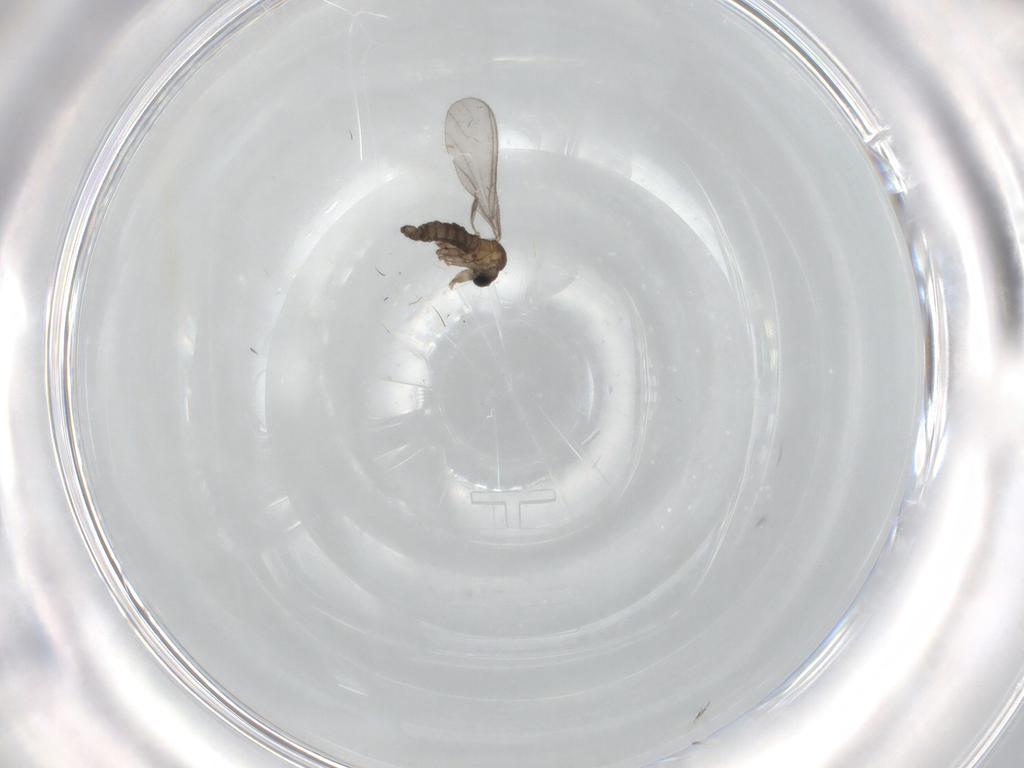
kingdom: Animalia
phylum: Arthropoda
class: Insecta
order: Diptera
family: Sciaridae
